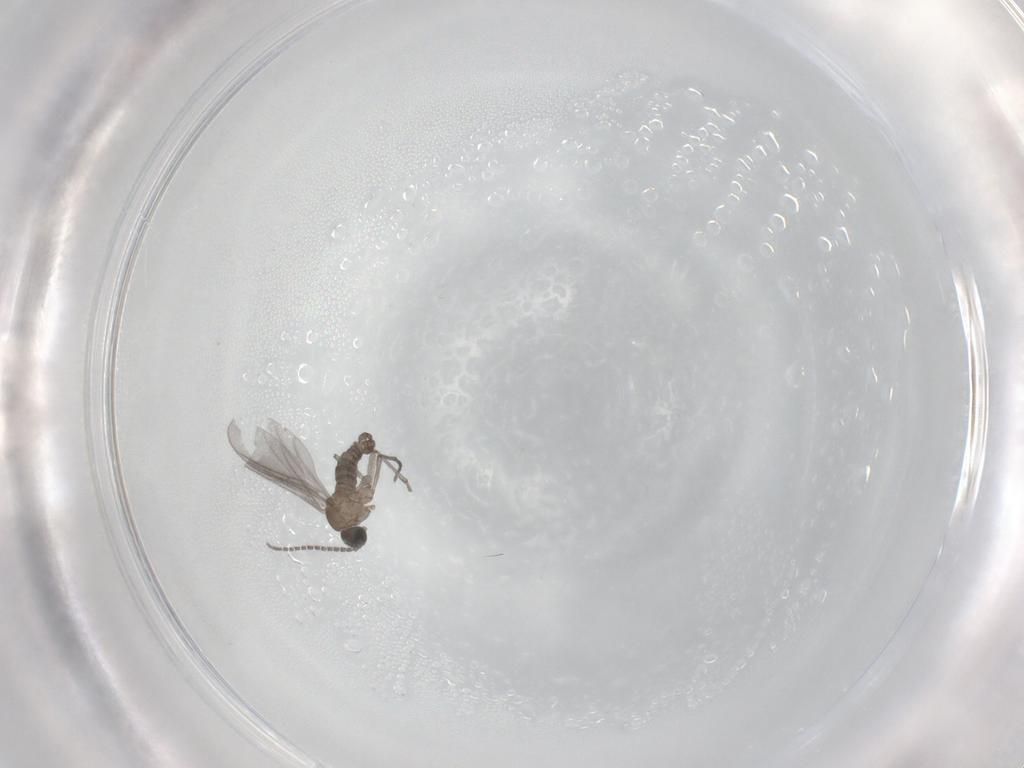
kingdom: Animalia
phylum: Arthropoda
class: Insecta
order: Diptera
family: Sciaridae
